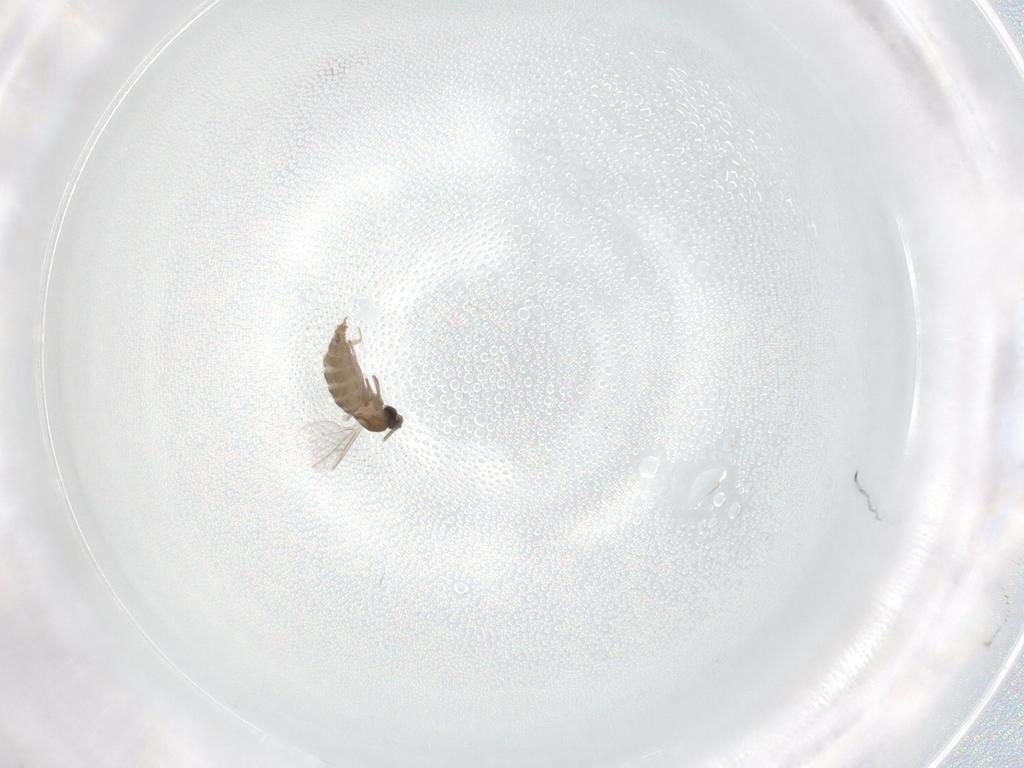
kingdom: Animalia
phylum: Arthropoda
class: Insecta
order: Diptera
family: Cecidomyiidae
